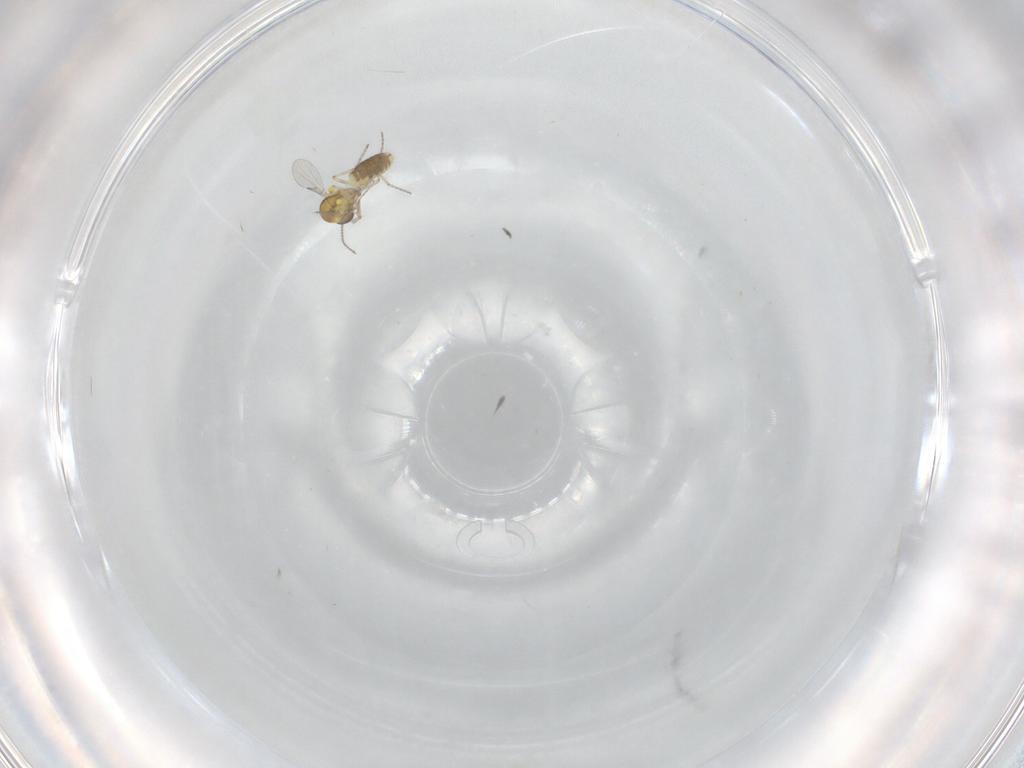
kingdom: Animalia
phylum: Arthropoda
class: Insecta
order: Diptera
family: Ceratopogonidae
